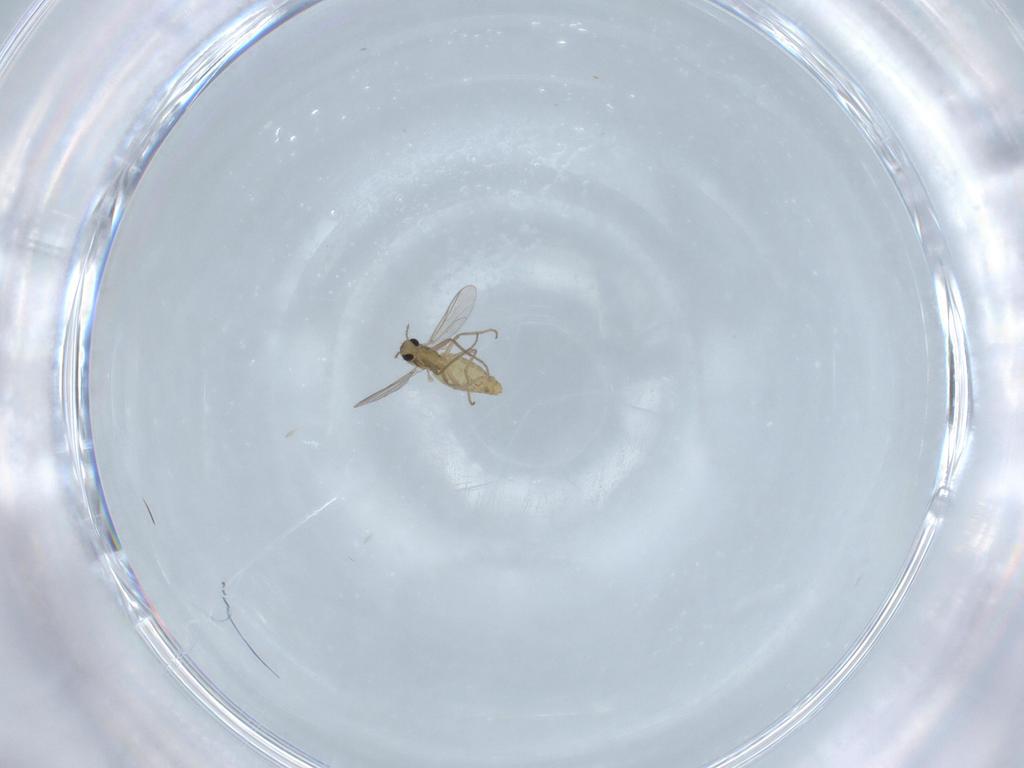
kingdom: Animalia
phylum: Arthropoda
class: Insecta
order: Diptera
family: Chironomidae
